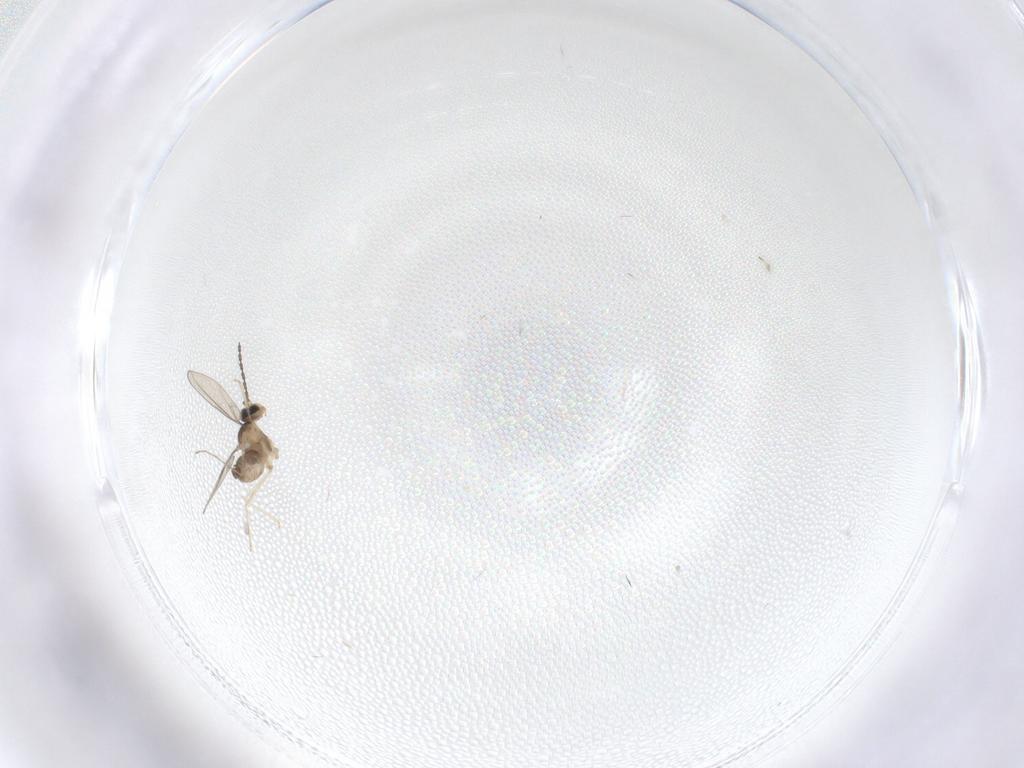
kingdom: Animalia
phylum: Arthropoda
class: Insecta
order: Diptera
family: Cecidomyiidae
